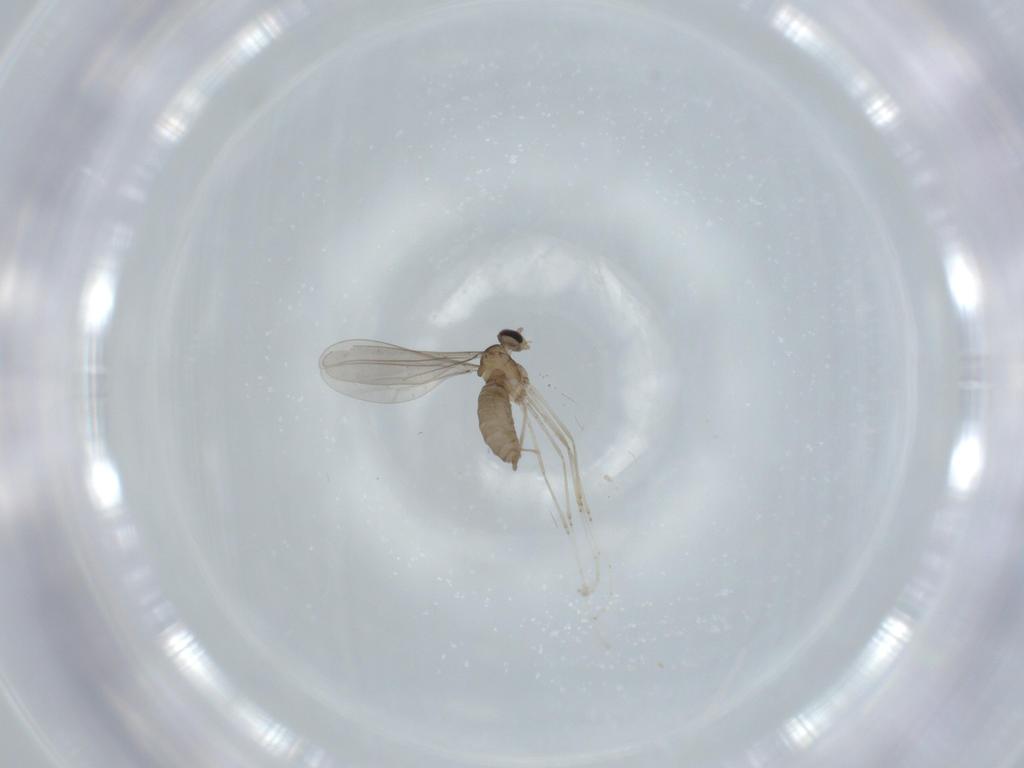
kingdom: Animalia
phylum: Arthropoda
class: Insecta
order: Diptera
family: Cecidomyiidae
